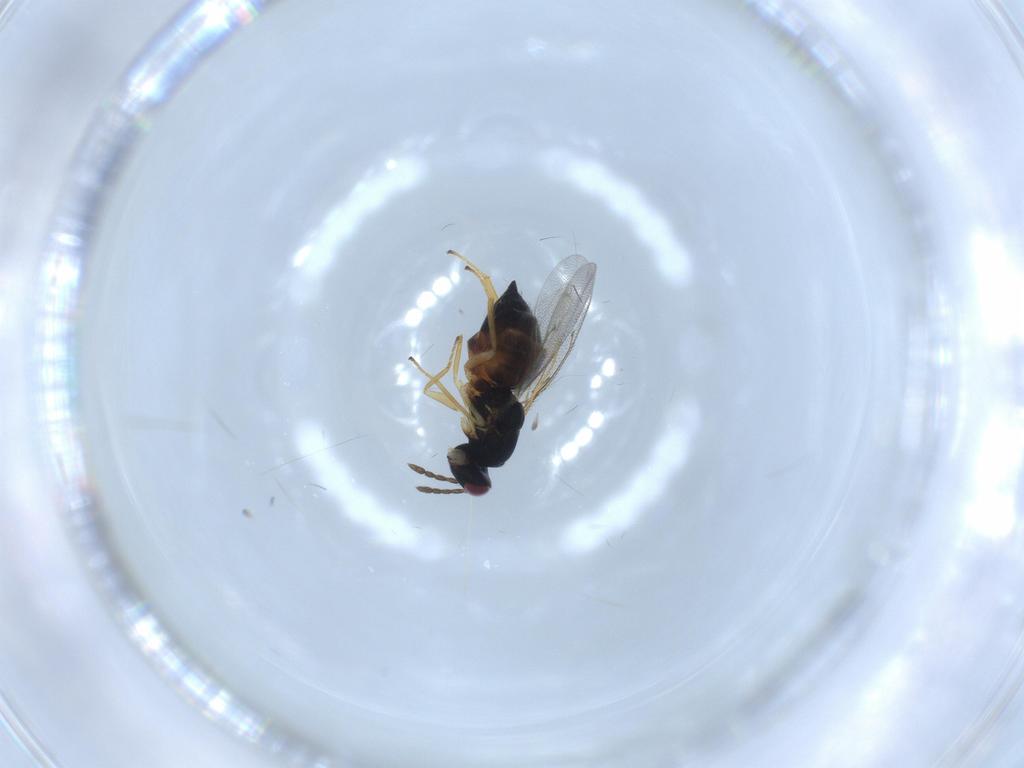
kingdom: Animalia
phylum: Arthropoda
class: Insecta
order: Hymenoptera
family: Eulophidae
